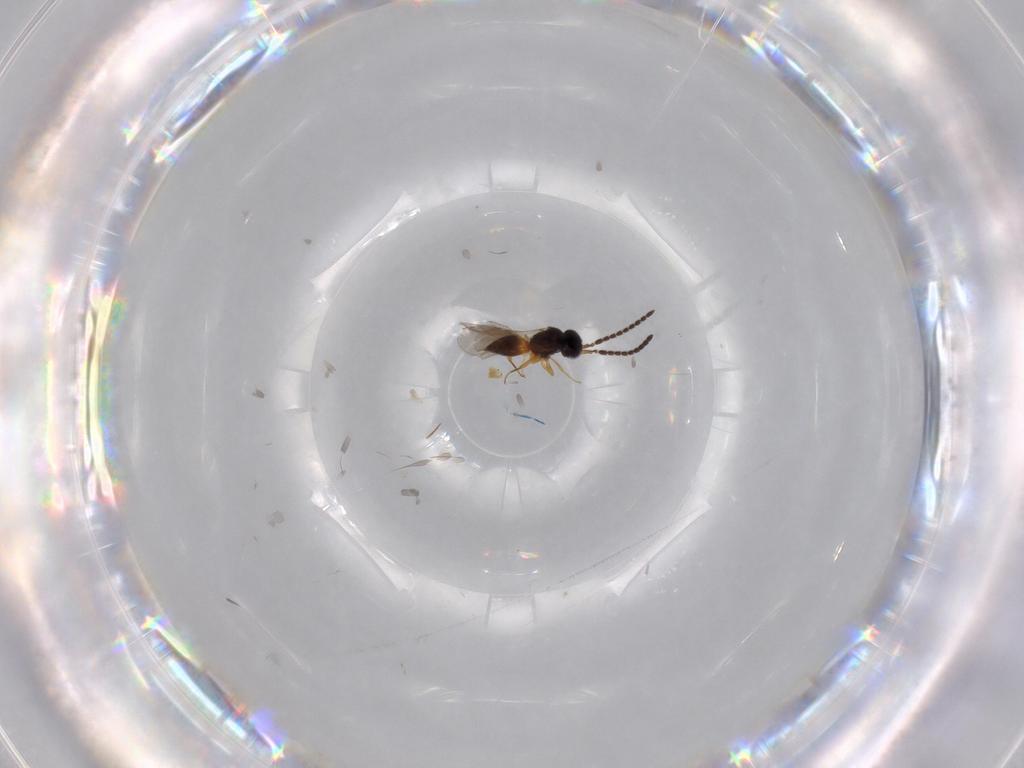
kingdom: Animalia
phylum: Arthropoda
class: Insecta
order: Hymenoptera
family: Ceraphronidae
